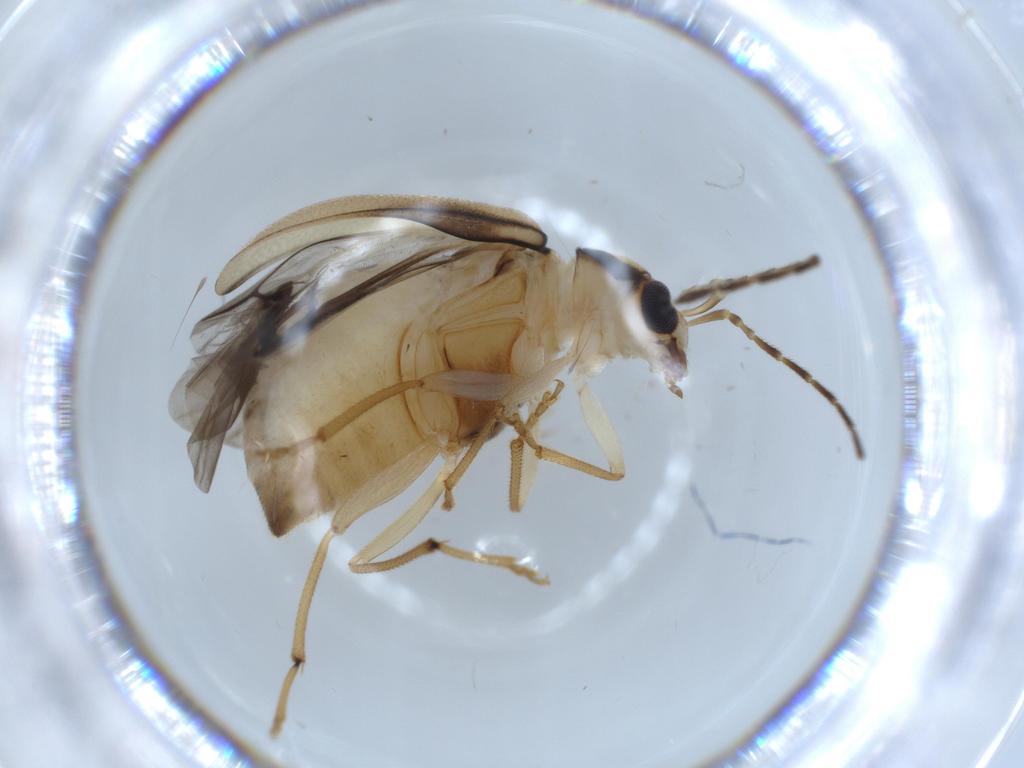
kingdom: Animalia
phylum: Arthropoda
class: Insecta
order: Coleoptera
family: Chrysomelidae
